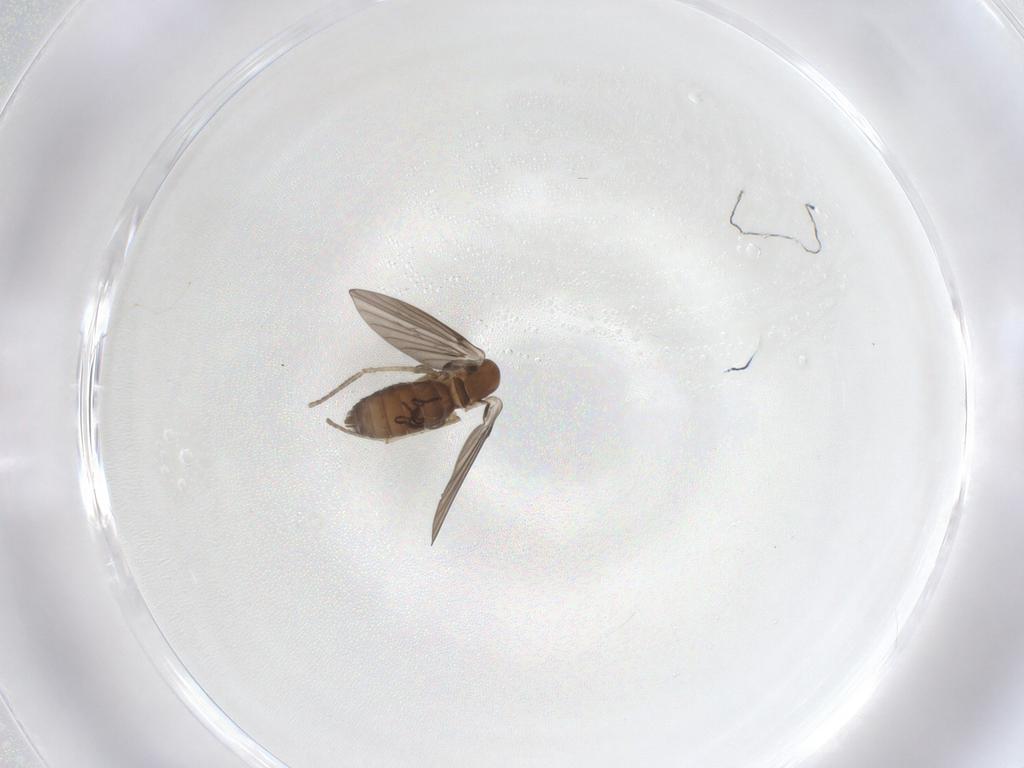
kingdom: Animalia
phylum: Arthropoda
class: Insecta
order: Diptera
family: Psychodidae
